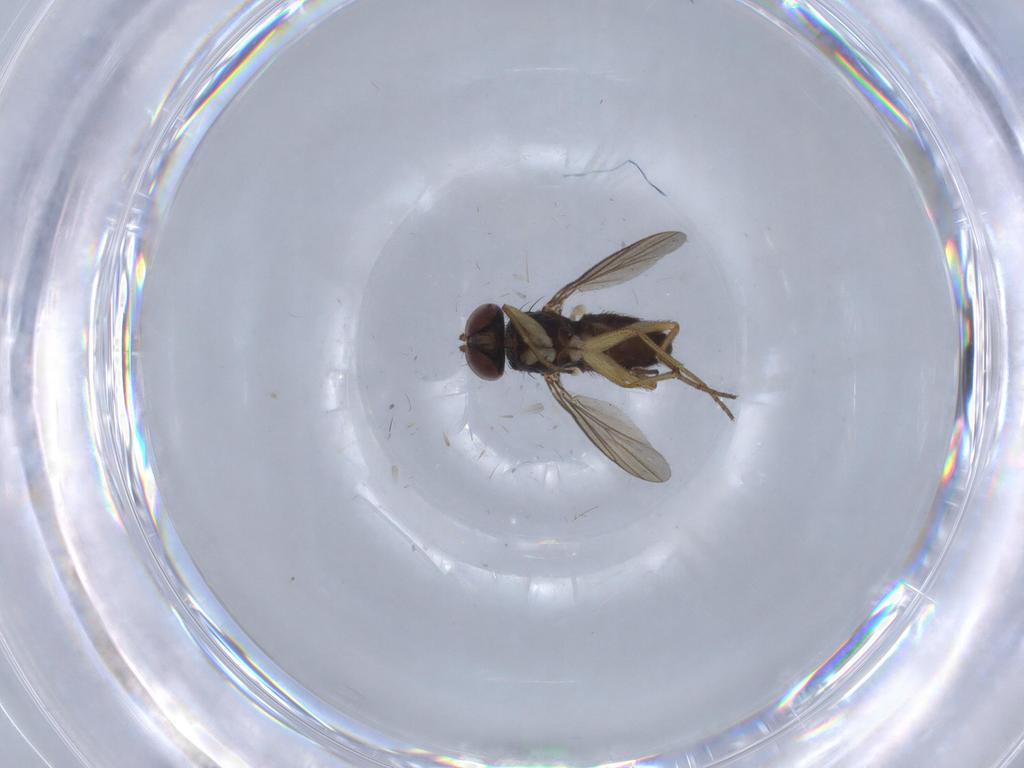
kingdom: Animalia
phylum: Arthropoda
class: Insecta
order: Diptera
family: Dolichopodidae
